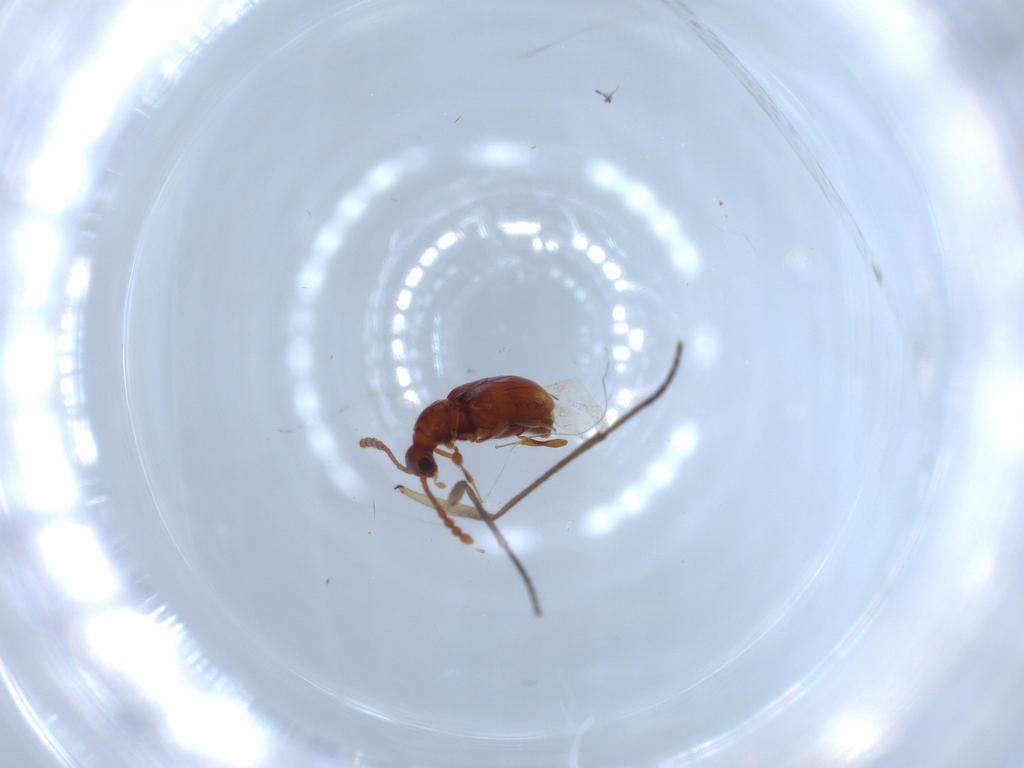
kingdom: Animalia
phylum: Arthropoda
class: Insecta
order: Coleoptera
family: Staphylinidae
